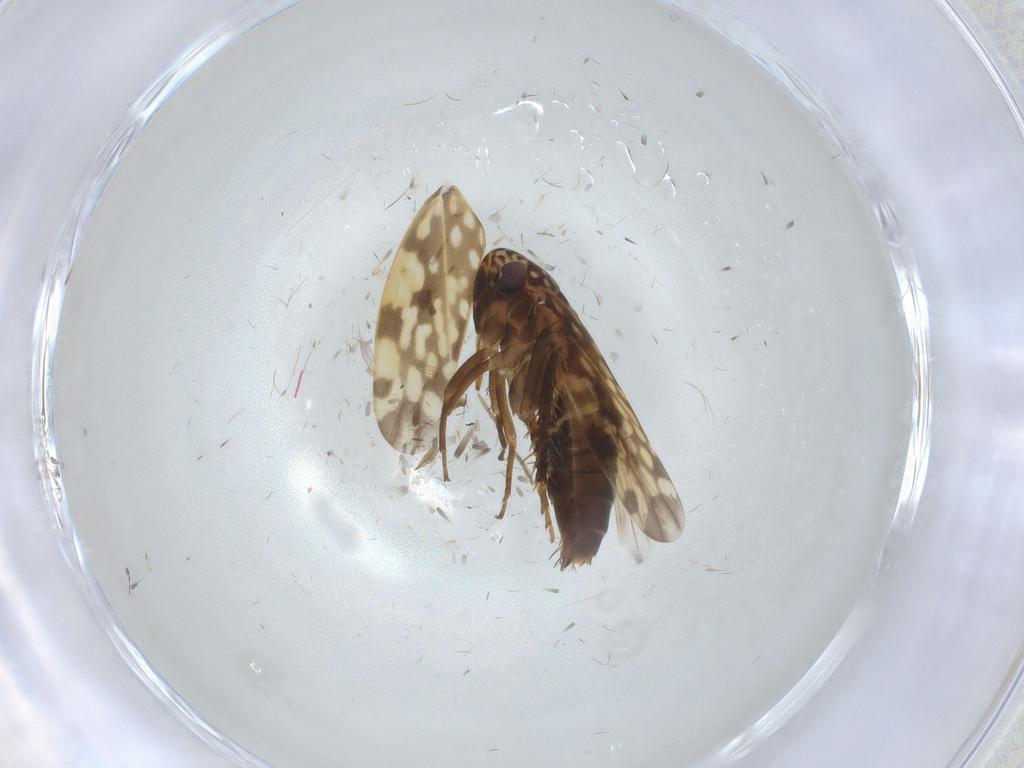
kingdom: Animalia
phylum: Arthropoda
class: Insecta
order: Hemiptera
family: Cicadellidae
